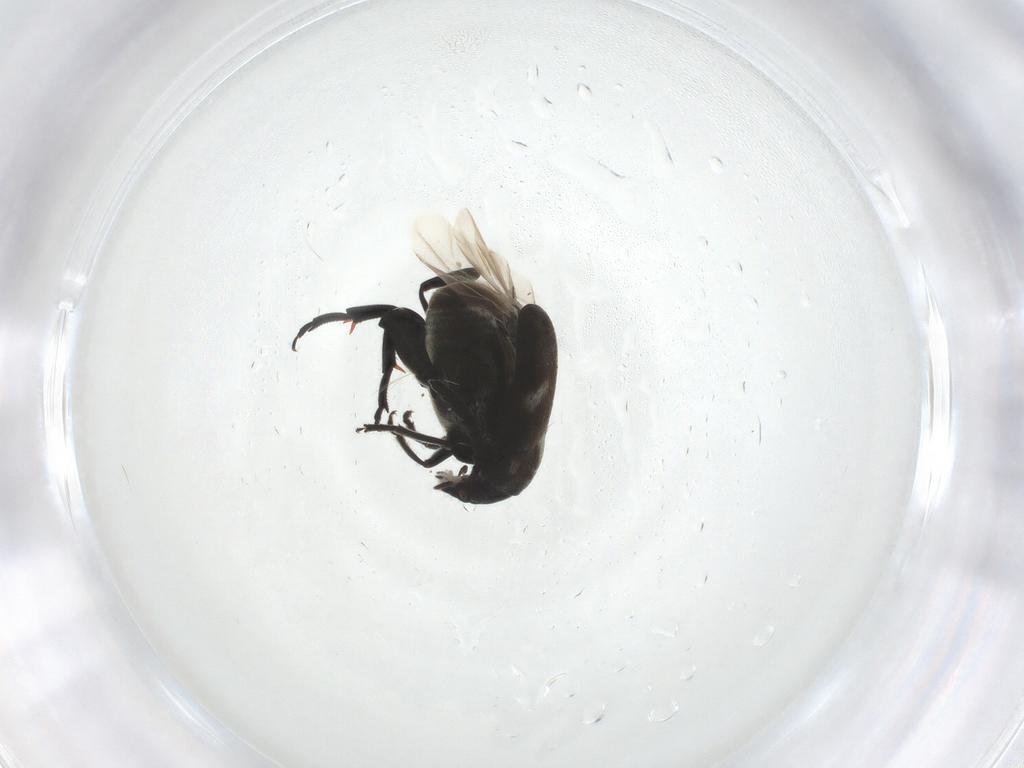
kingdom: Animalia
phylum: Arthropoda
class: Insecta
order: Coleoptera
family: Chrysomelidae
